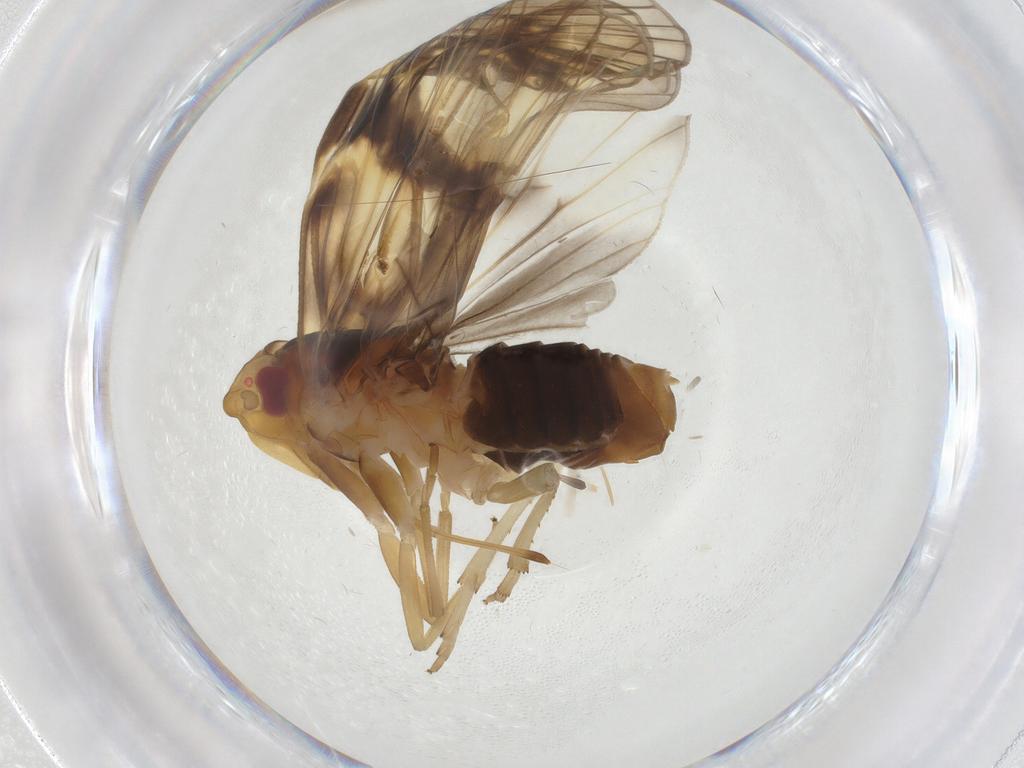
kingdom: Animalia
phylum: Arthropoda
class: Insecta
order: Hemiptera
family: Cixiidae
